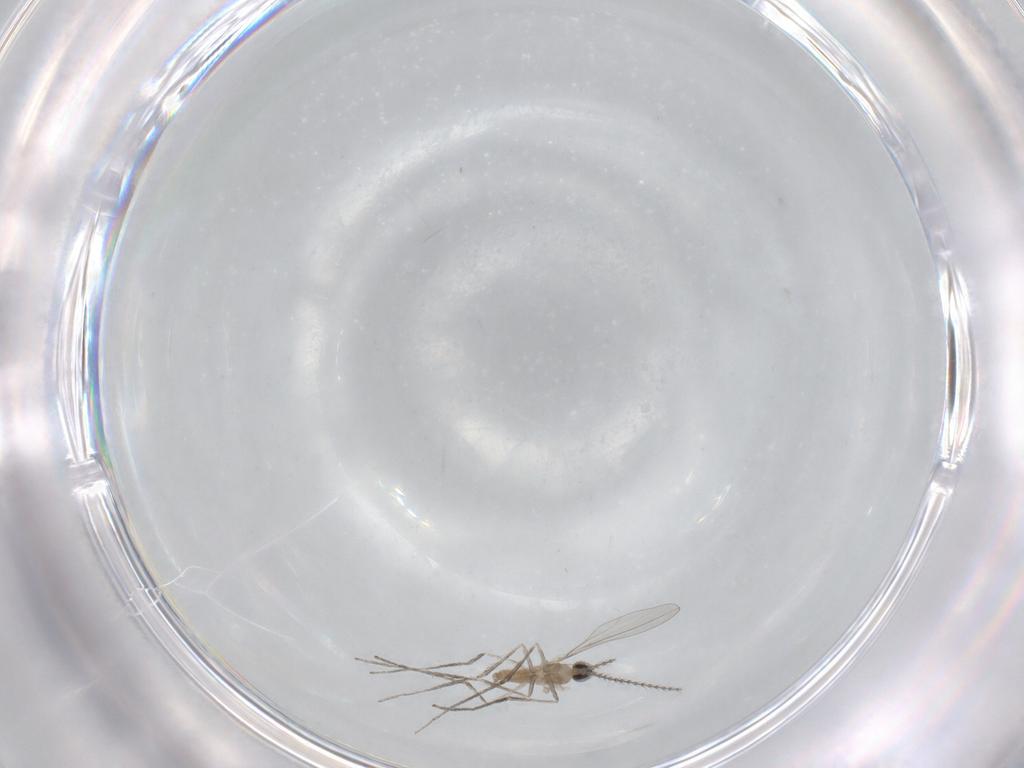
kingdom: Animalia
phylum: Arthropoda
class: Insecta
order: Diptera
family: Cecidomyiidae
